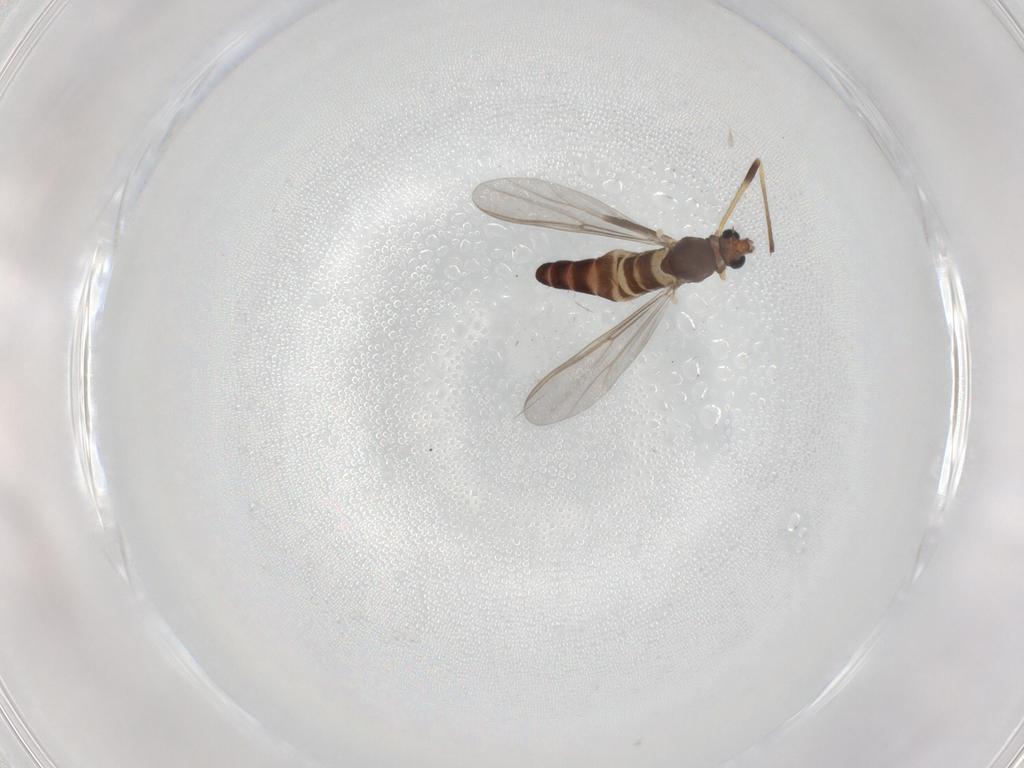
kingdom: Animalia
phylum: Arthropoda
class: Insecta
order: Diptera
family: Chironomidae
